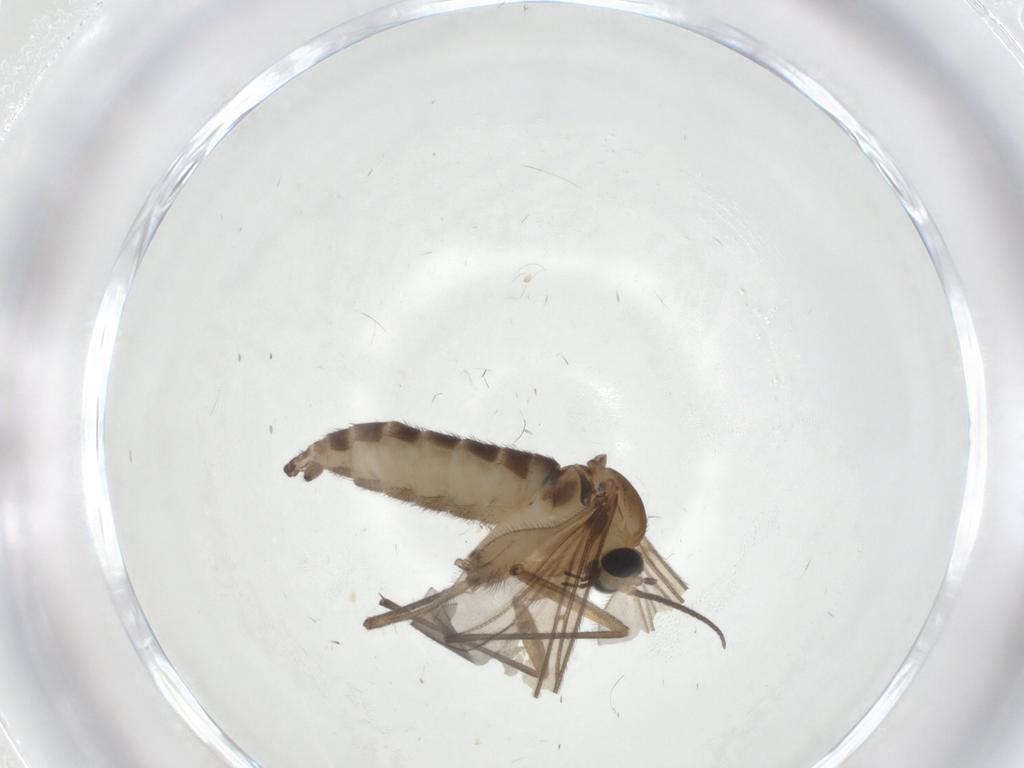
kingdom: Animalia
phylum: Arthropoda
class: Insecta
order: Diptera
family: Sciaridae
